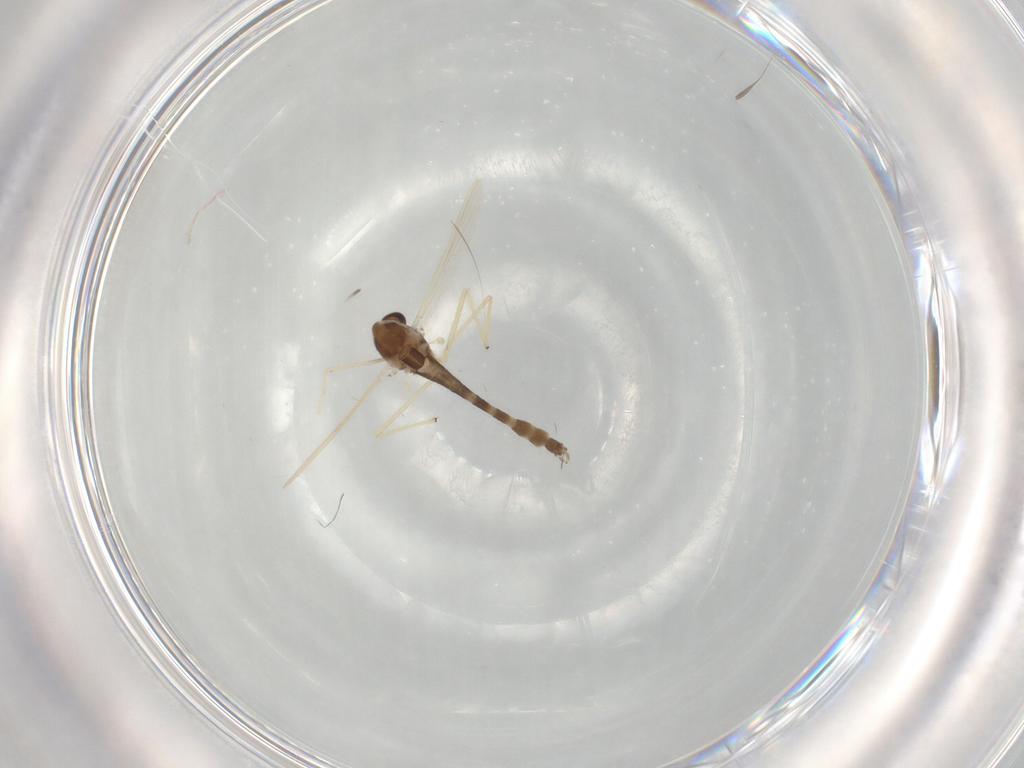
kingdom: Animalia
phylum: Arthropoda
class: Insecta
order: Diptera
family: Chironomidae
